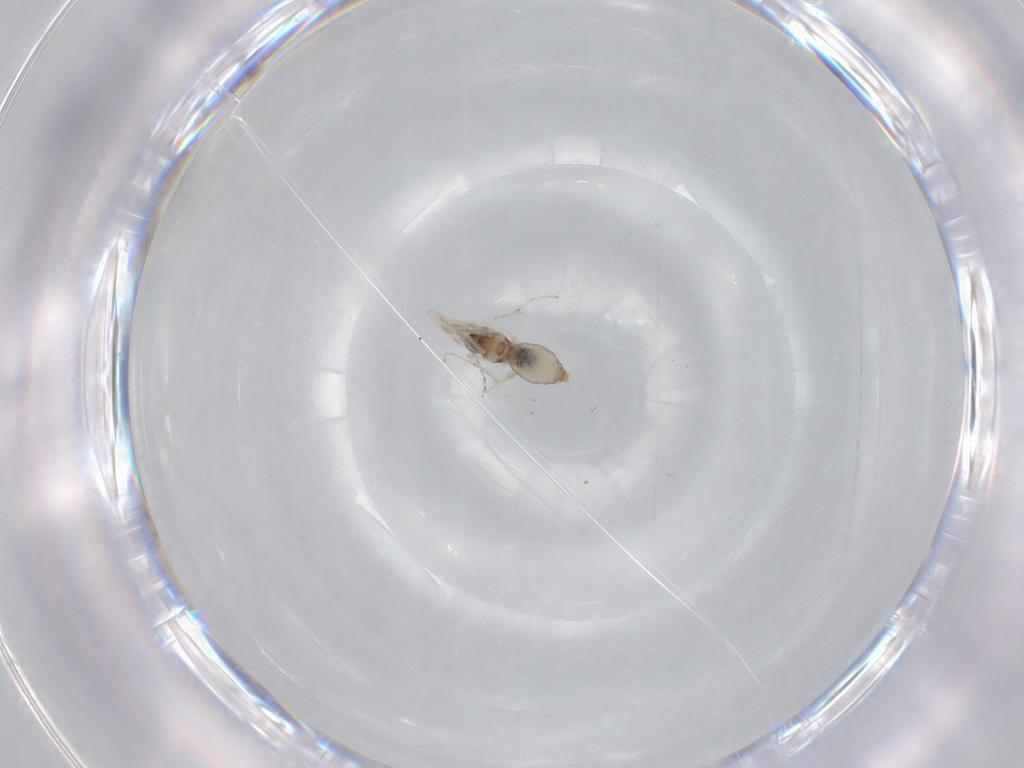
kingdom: Animalia
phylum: Arthropoda
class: Insecta
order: Diptera
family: Cecidomyiidae
